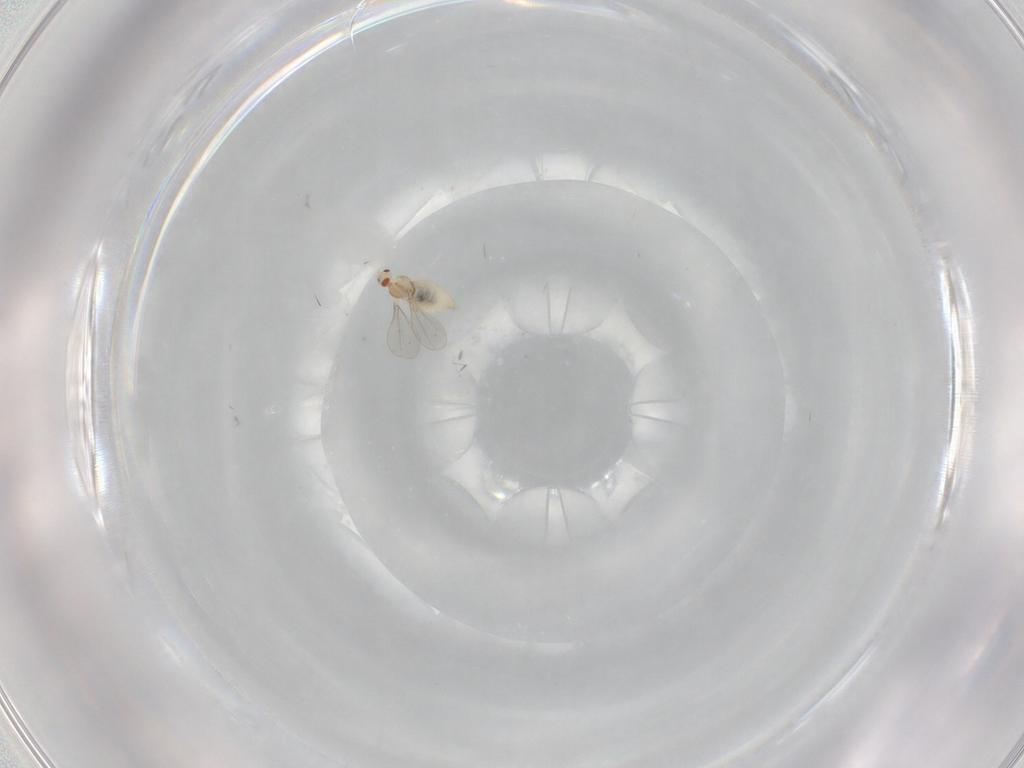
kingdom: Animalia
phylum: Arthropoda
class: Insecta
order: Diptera
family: Cecidomyiidae
